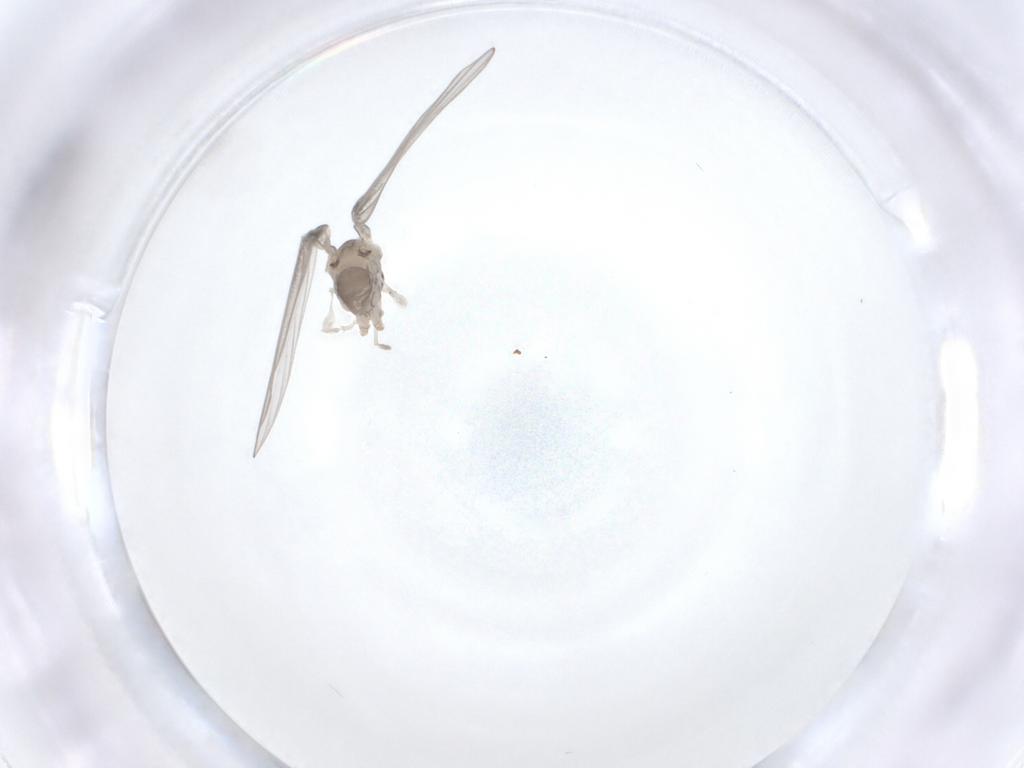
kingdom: Animalia
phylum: Arthropoda
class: Insecta
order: Diptera
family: Psychodidae
